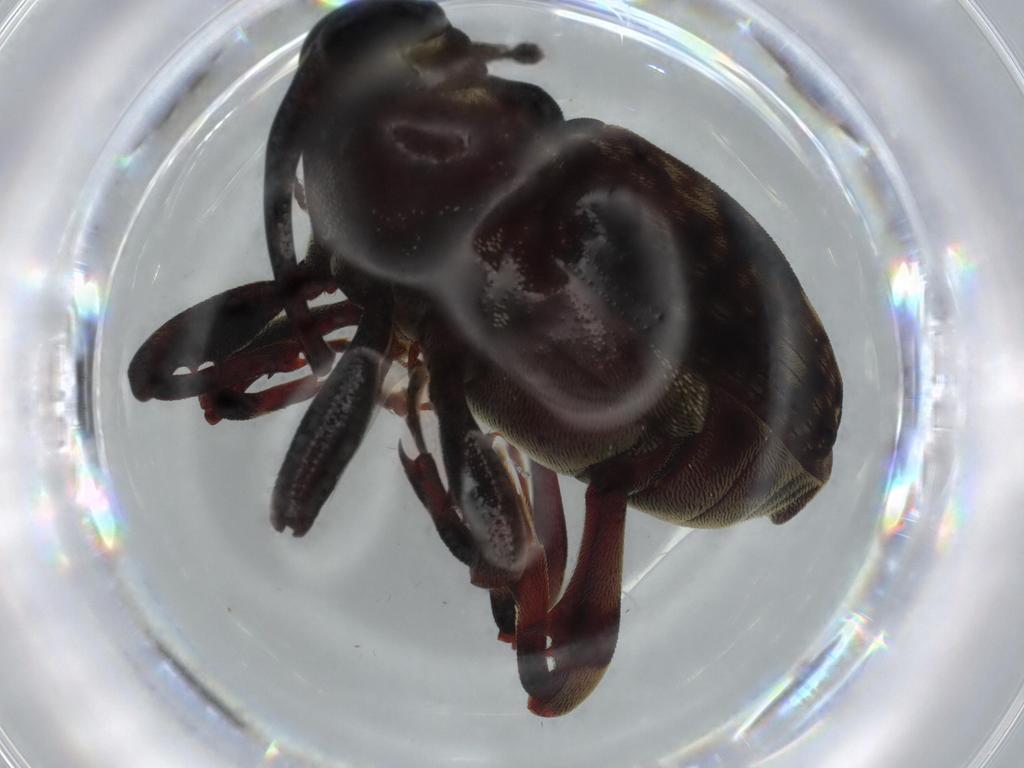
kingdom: Animalia
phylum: Arthropoda
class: Insecta
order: Coleoptera
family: Curculionidae
